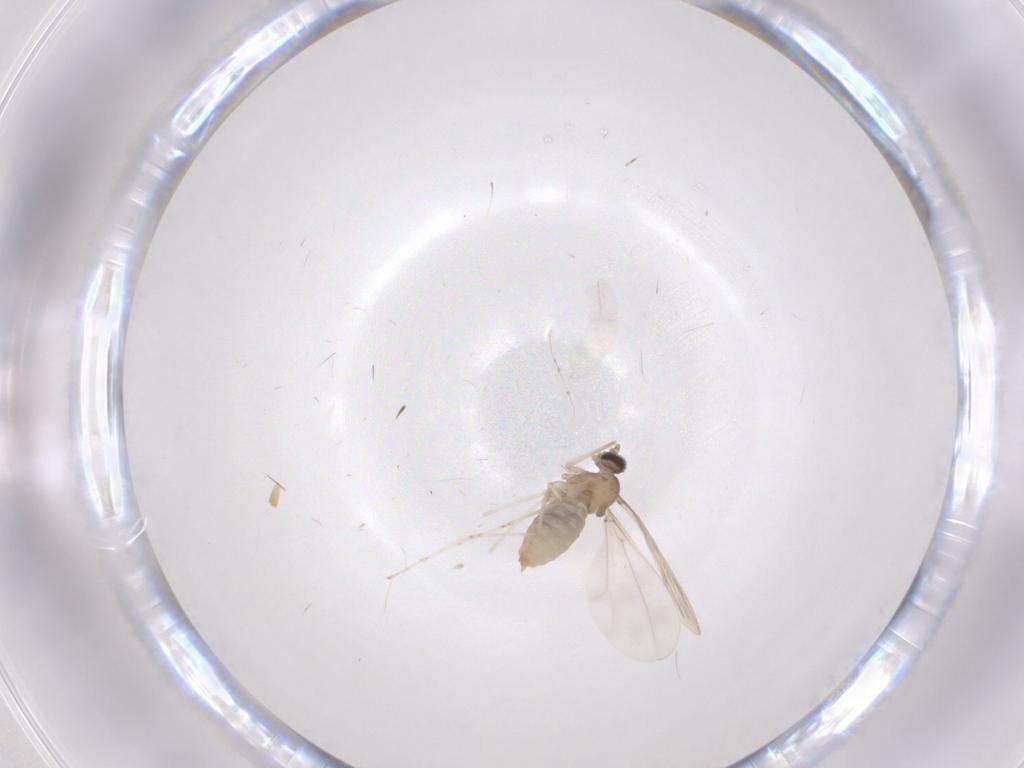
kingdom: Animalia
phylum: Arthropoda
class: Insecta
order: Diptera
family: Cecidomyiidae
